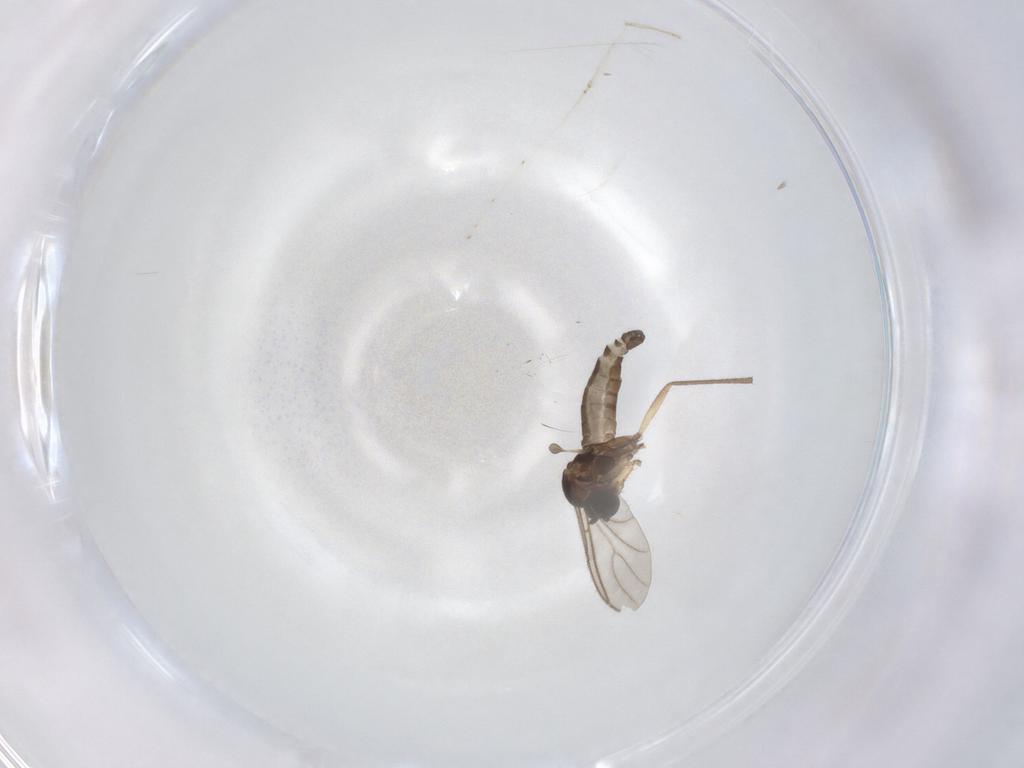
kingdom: Animalia
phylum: Arthropoda
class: Insecta
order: Diptera
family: Sciaridae
